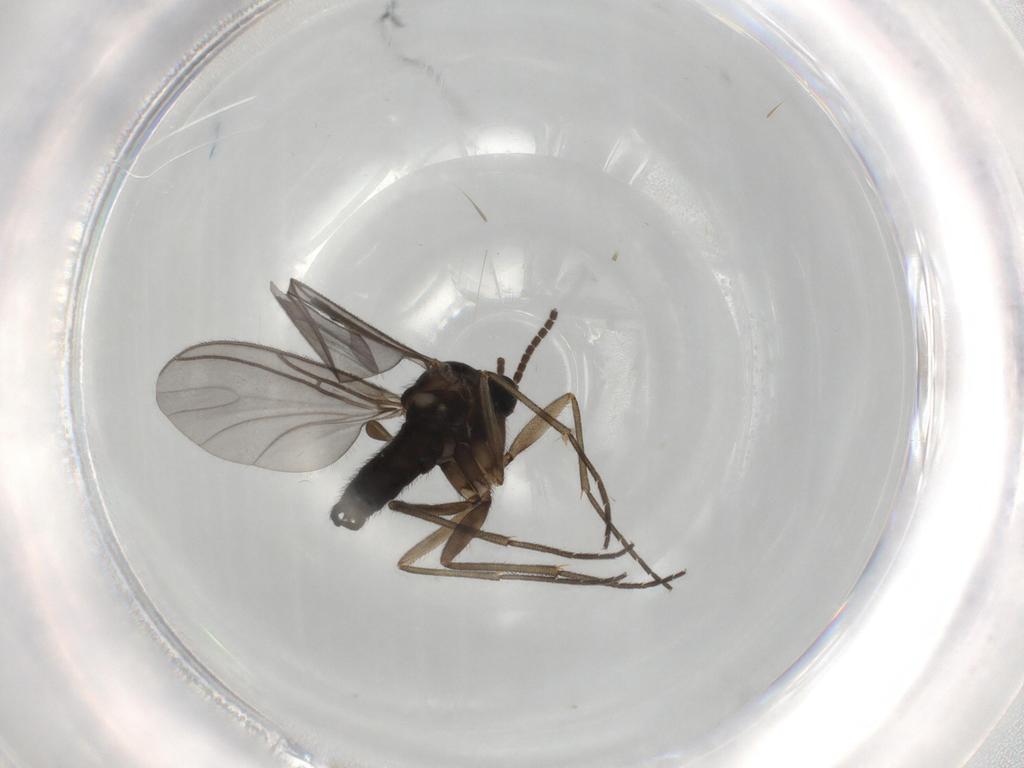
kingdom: Animalia
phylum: Arthropoda
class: Insecta
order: Diptera
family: Sciaridae
